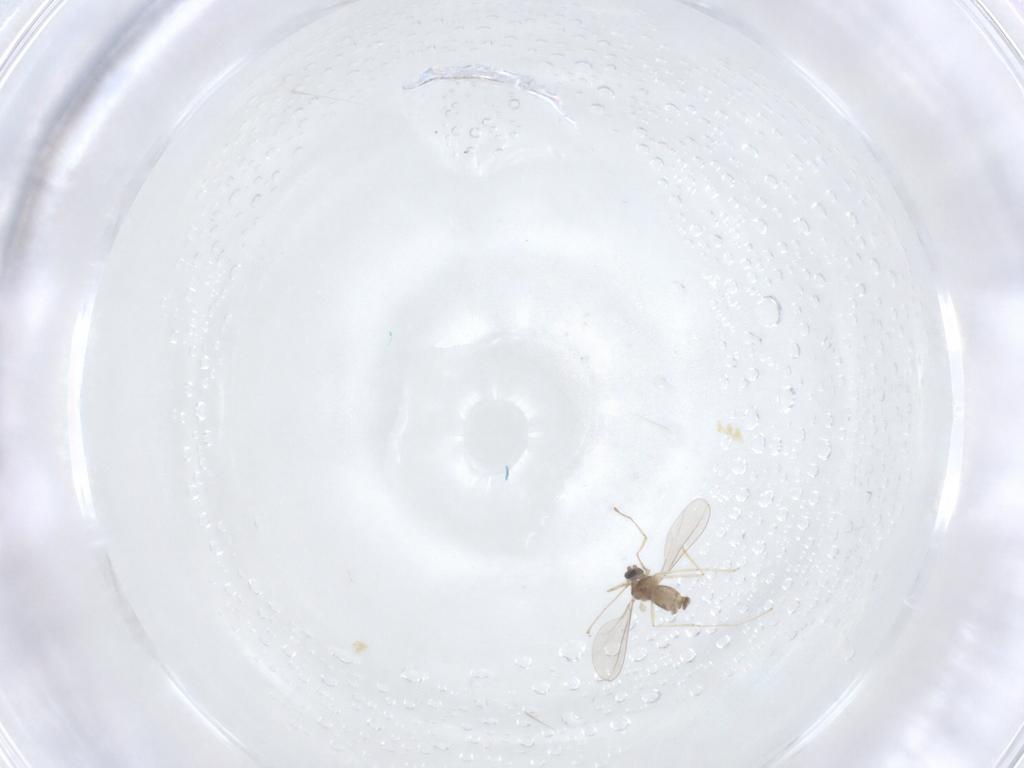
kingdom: Animalia
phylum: Arthropoda
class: Insecta
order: Diptera
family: Cecidomyiidae
